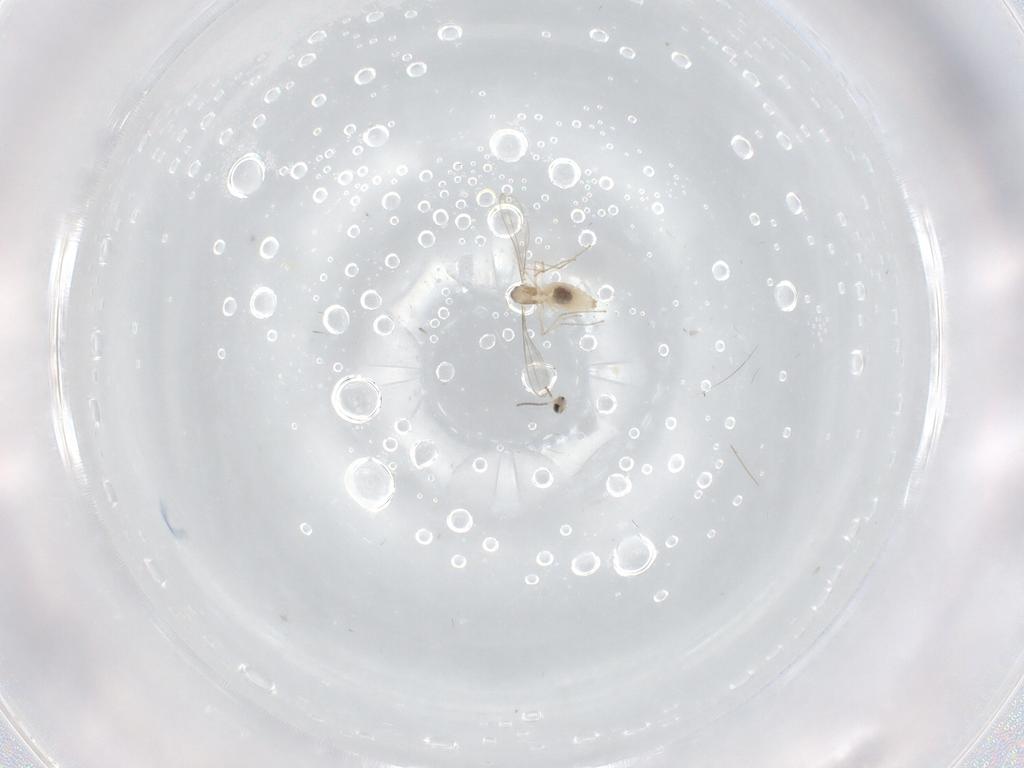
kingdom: Animalia
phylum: Arthropoda
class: Insecta
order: Diptera
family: Cecidomyiidae
